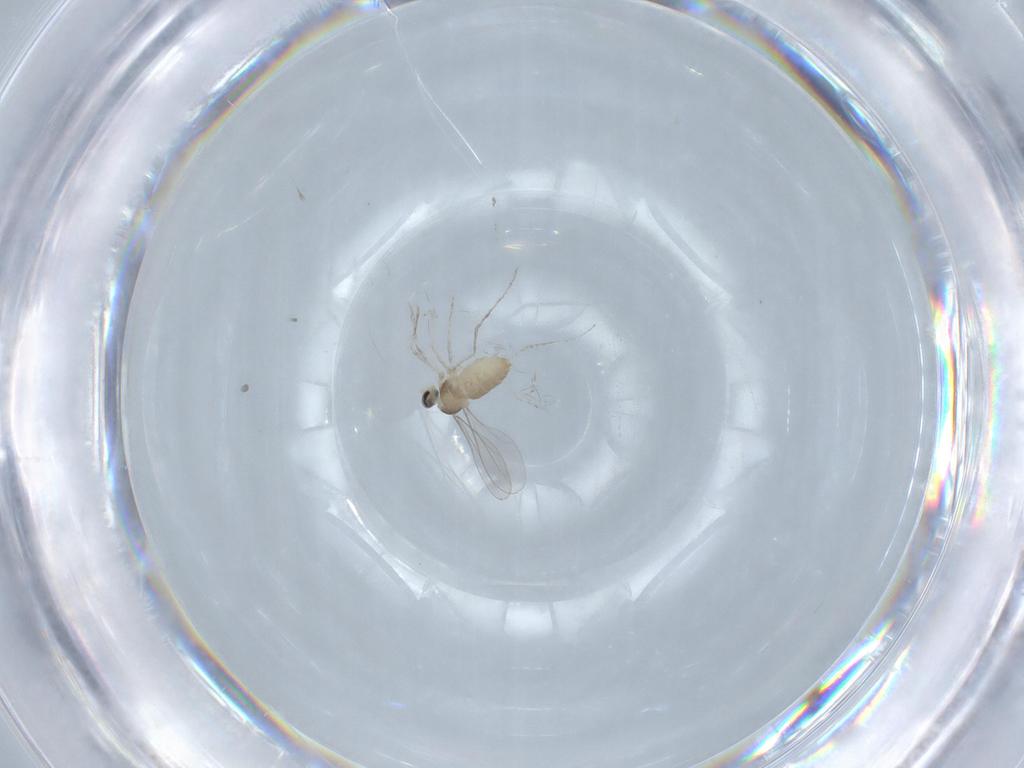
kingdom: Animalia
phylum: Arthropoda
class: Insecta
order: Diptera
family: Cecidomyiidae
